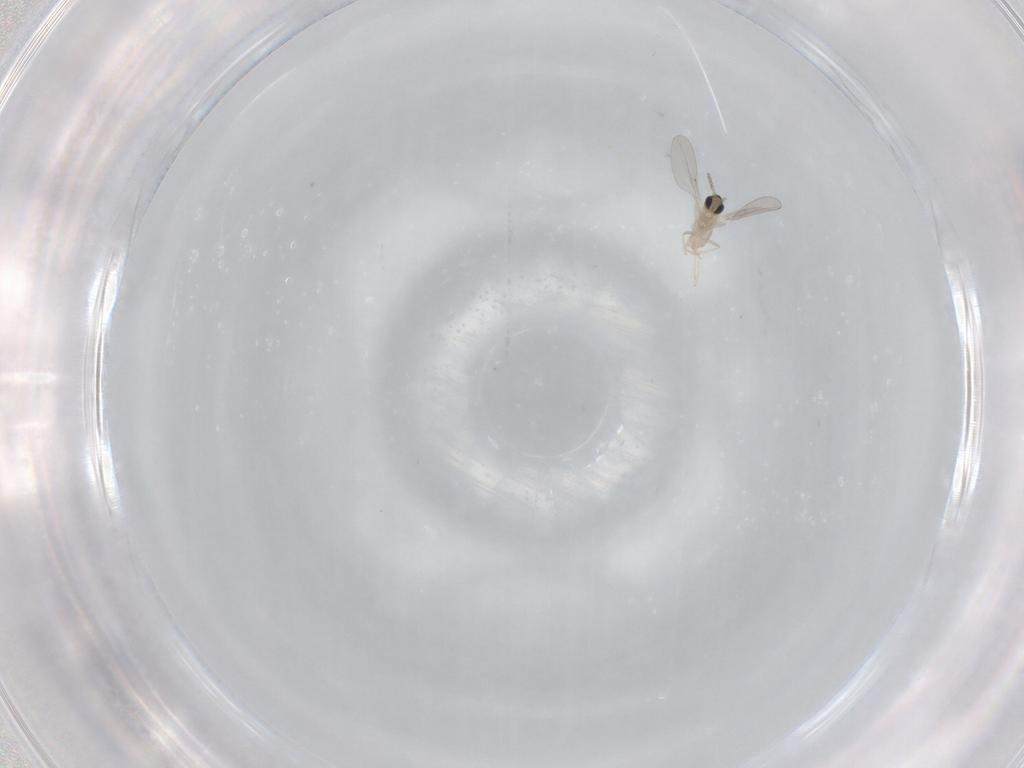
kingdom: Animalia
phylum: Arthropoda
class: Insecta
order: Diptera
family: Cecidomyiidae
